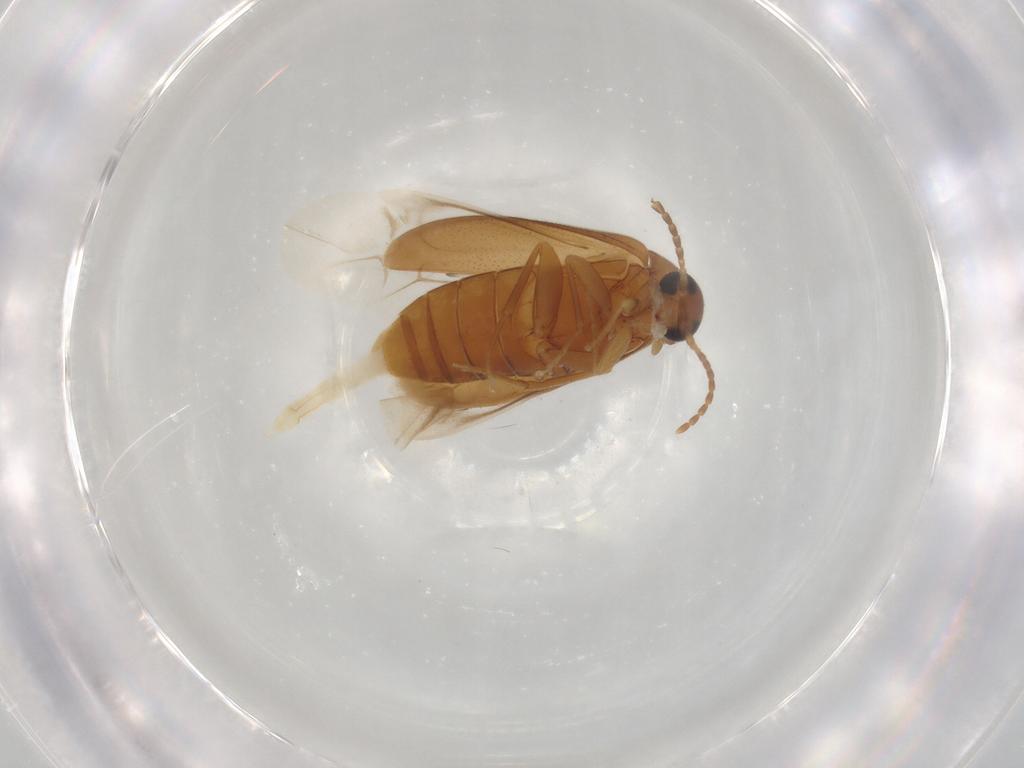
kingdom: Animalia
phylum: Arthropoda
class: Insecta
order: Coleoptera
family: Scraptiidae
